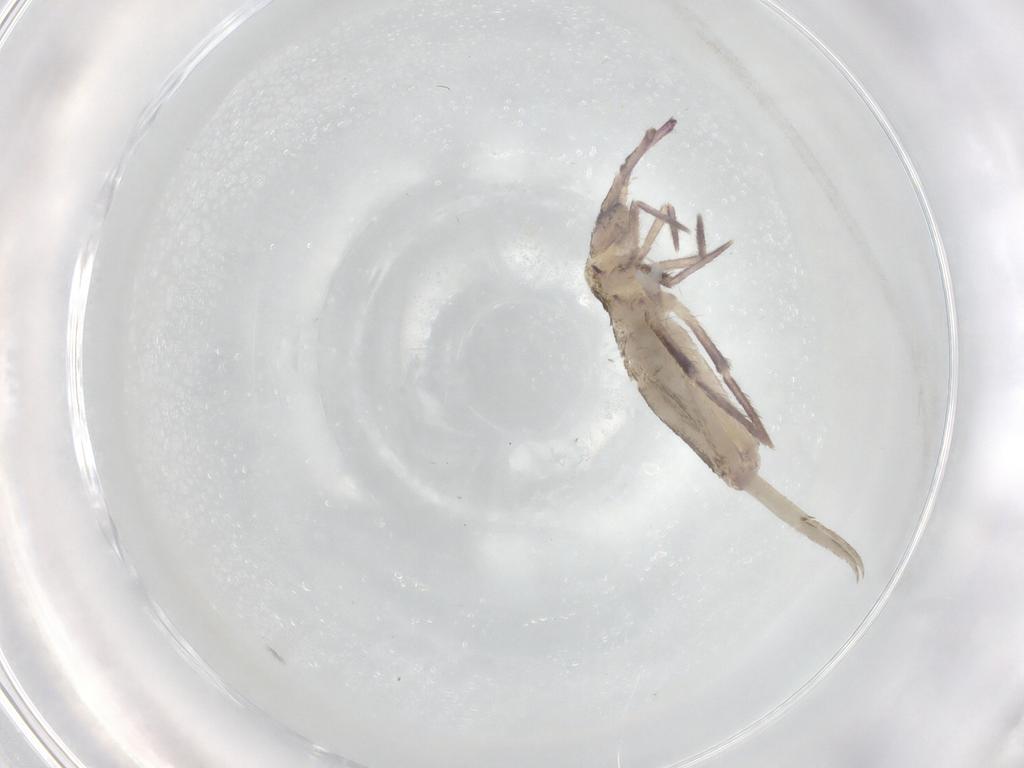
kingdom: Animalia
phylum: Arthropoda
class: Collembola
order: Entomobryomorpha
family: Entomobryidae
